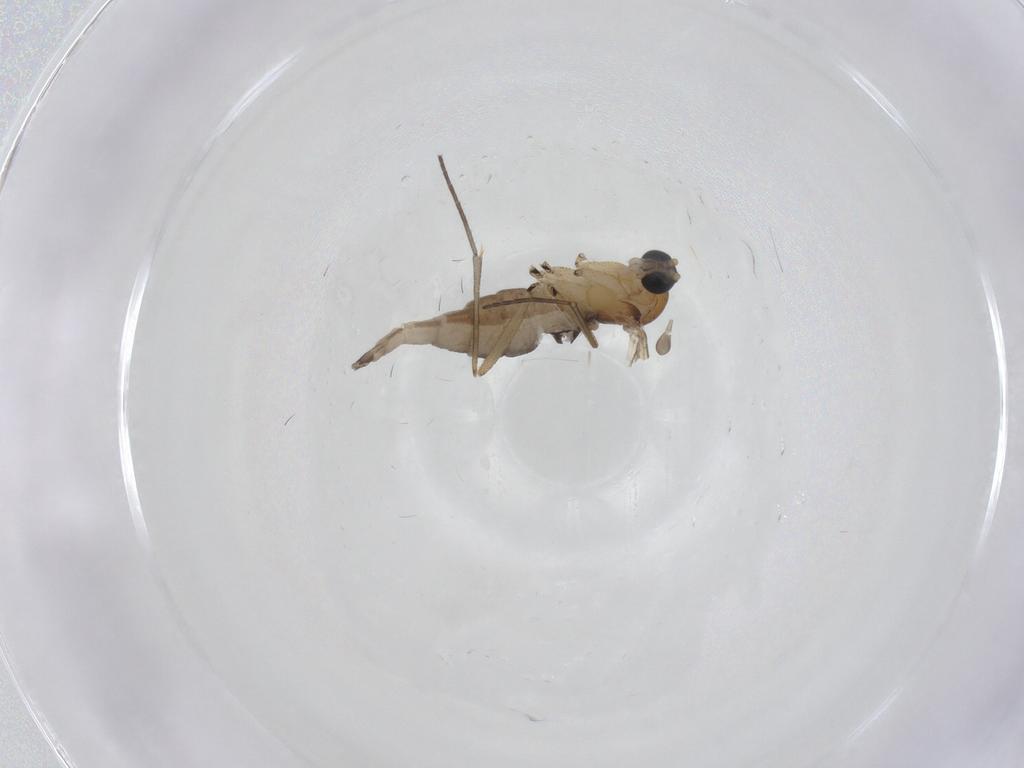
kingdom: Animalia
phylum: Arthropoda
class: Insecta
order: Diptera
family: Sciaridae
